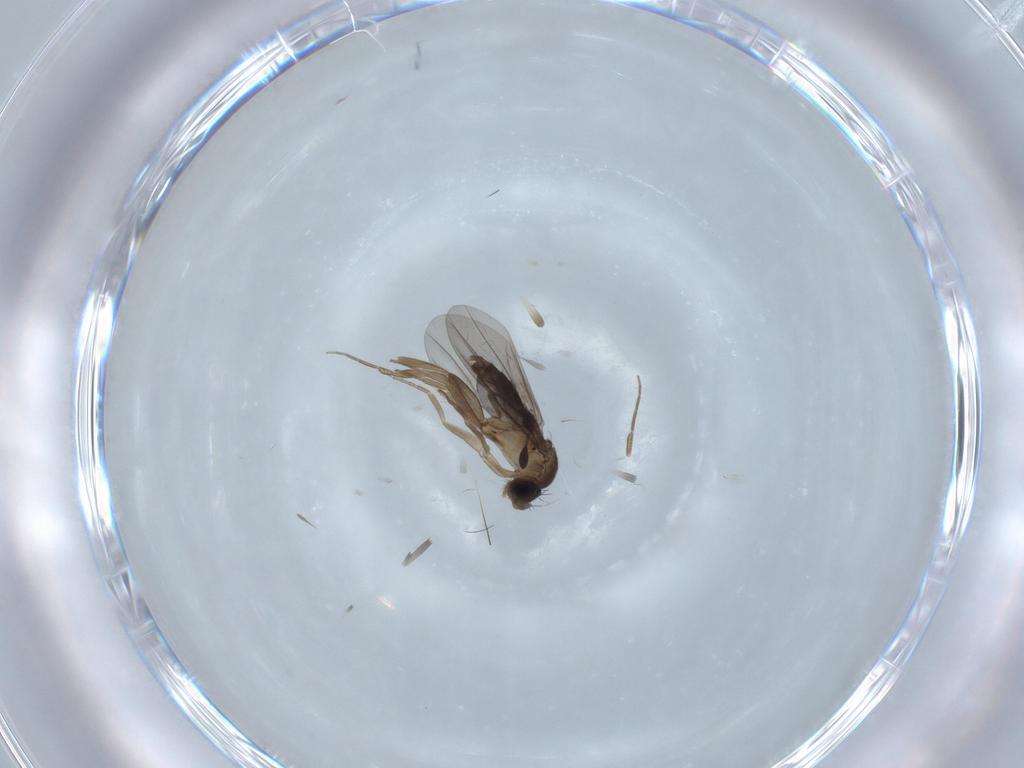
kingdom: Animalia
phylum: Arthropoda
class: Insecta
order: Diptera
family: Phoridae
